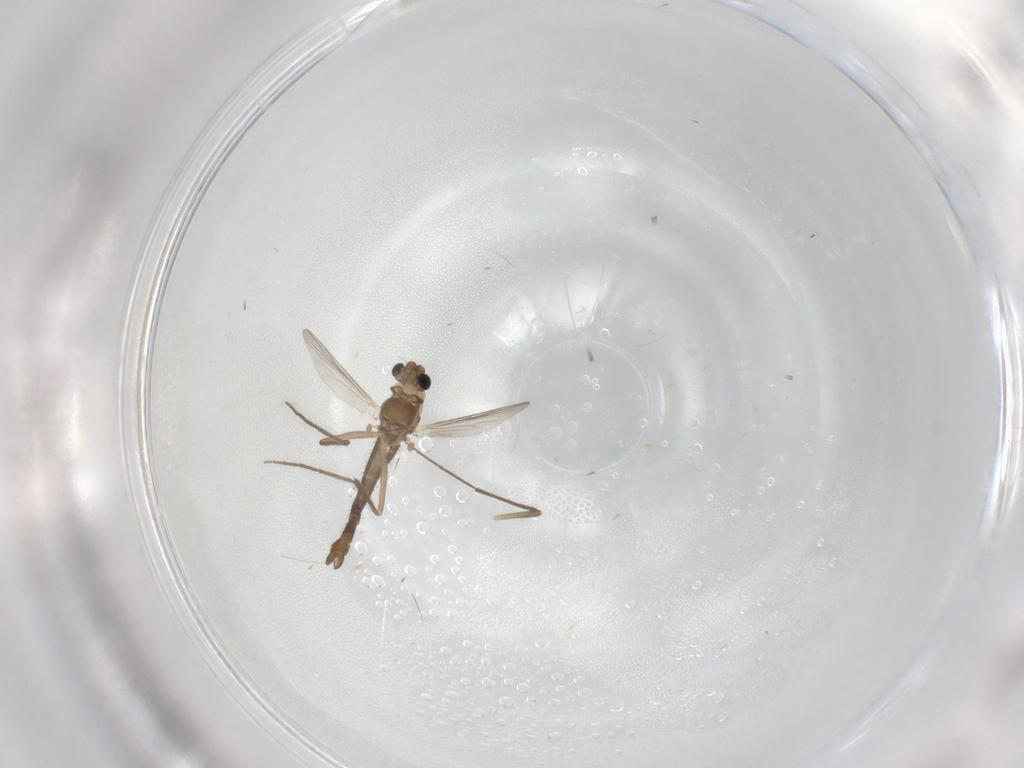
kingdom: Animalia
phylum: Arthropoda
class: Insecta
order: Diptera
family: Chironomidae
